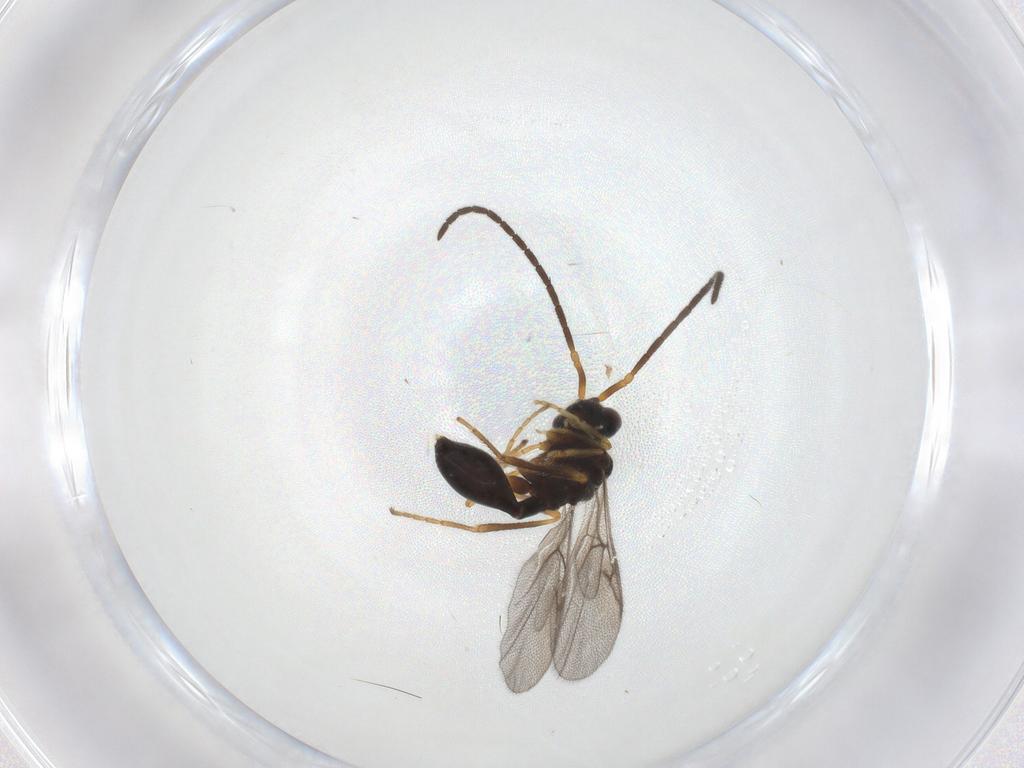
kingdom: Animalia
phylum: Arthropoda
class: Insecta
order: Hymenoptera
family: Diapriidae
